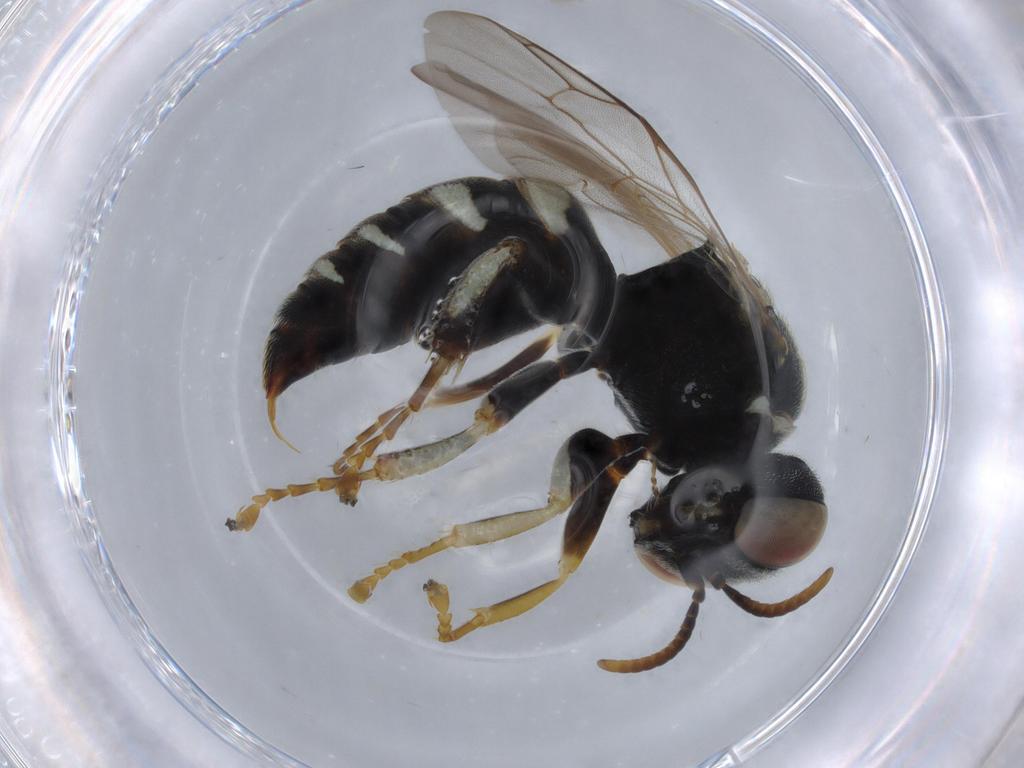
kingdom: Animalia
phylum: Arthropoda
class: Insecta
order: Hymenoptera
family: Crabronidae
